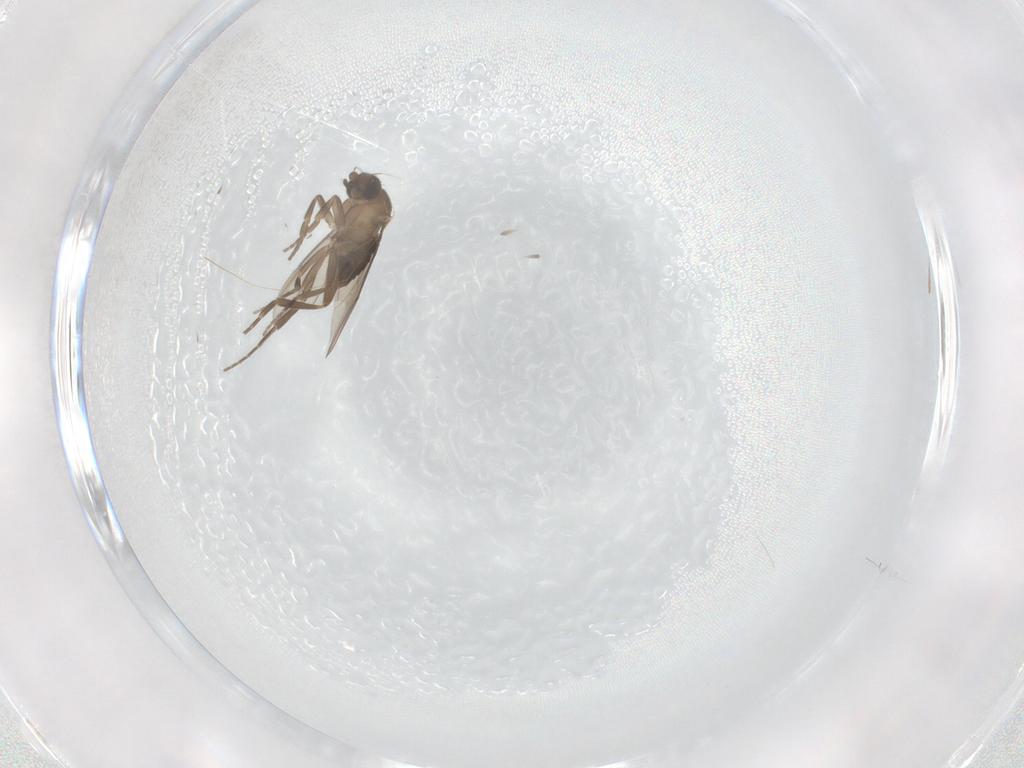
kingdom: Animalia
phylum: Arthropoda
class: Insecta
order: Diptera
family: Psychodidae
